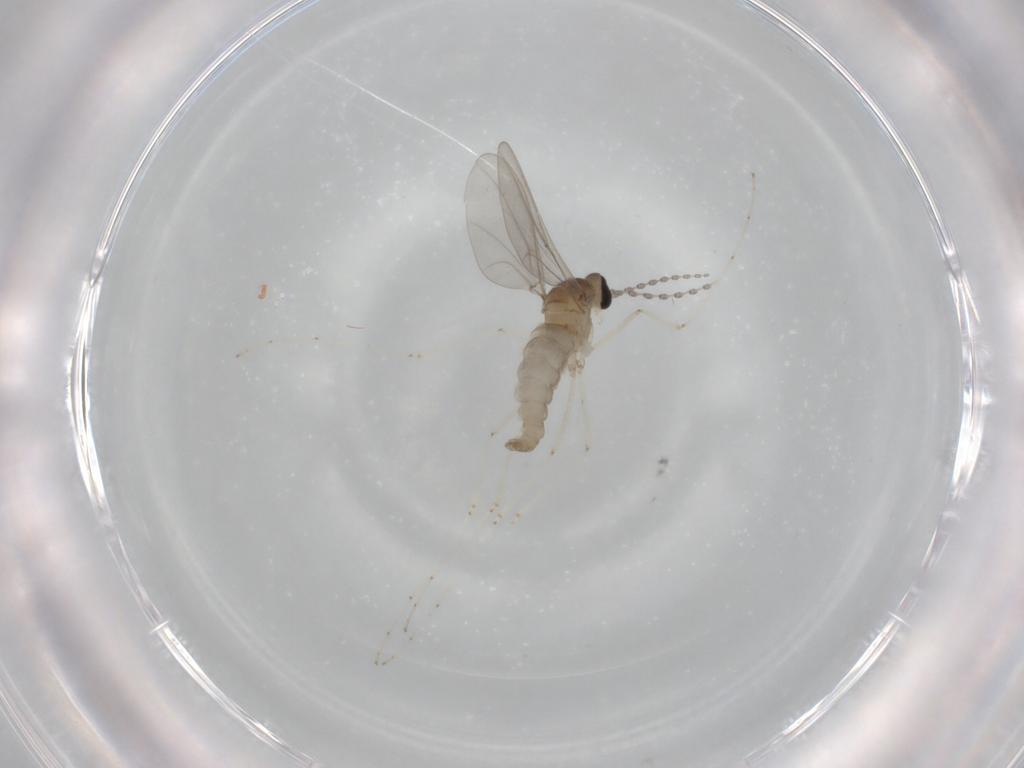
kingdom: Animalia
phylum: Arthropoda
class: Insecta
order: Diptera
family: Cecidomyiidae
